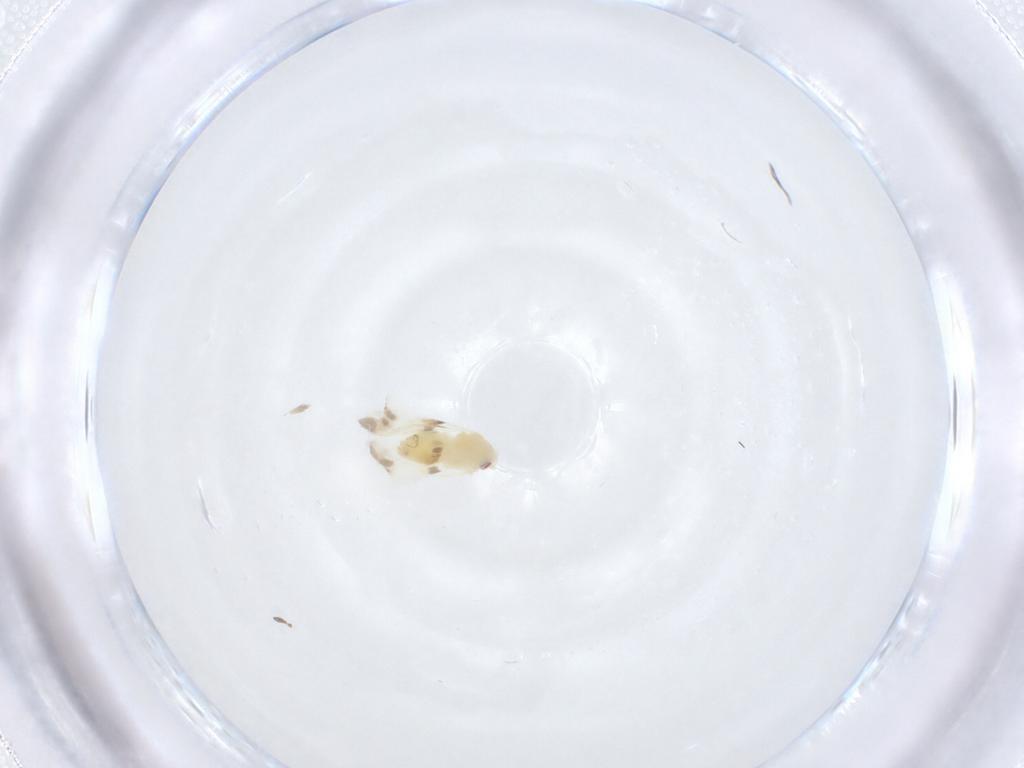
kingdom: Animalia
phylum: Arthropoda
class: Insecta
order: Hemiptera
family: Aleyrodidae
